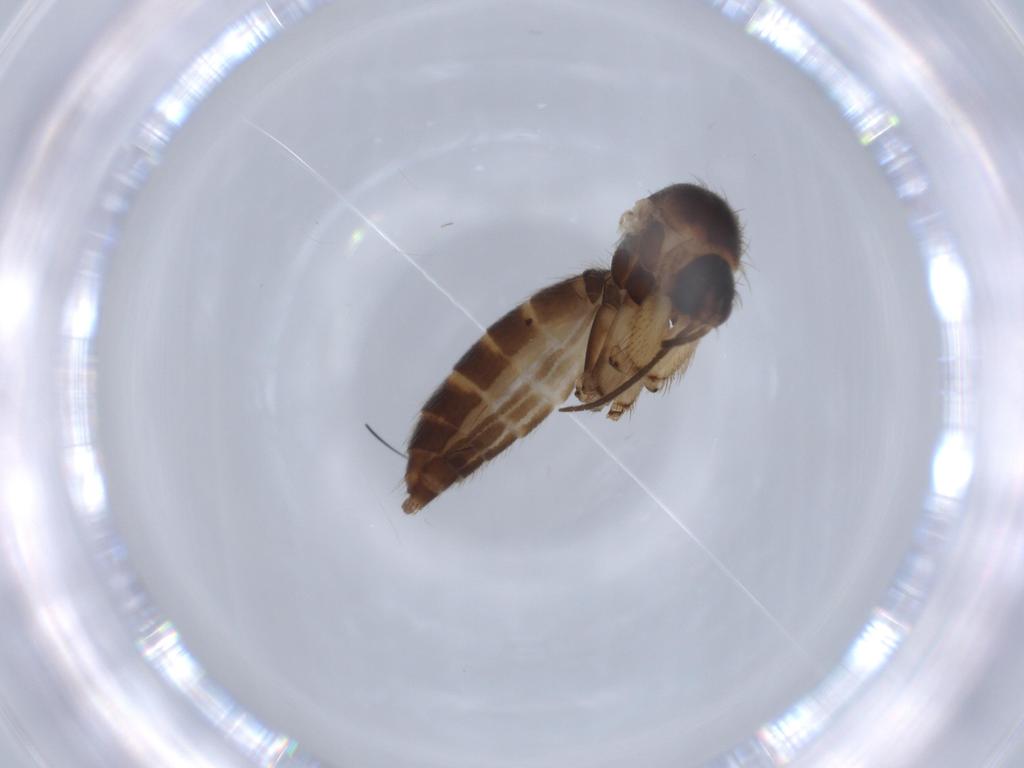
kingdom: Animalia
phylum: Arthropoda
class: Insecta
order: Diptera
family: Mycetophilidae
